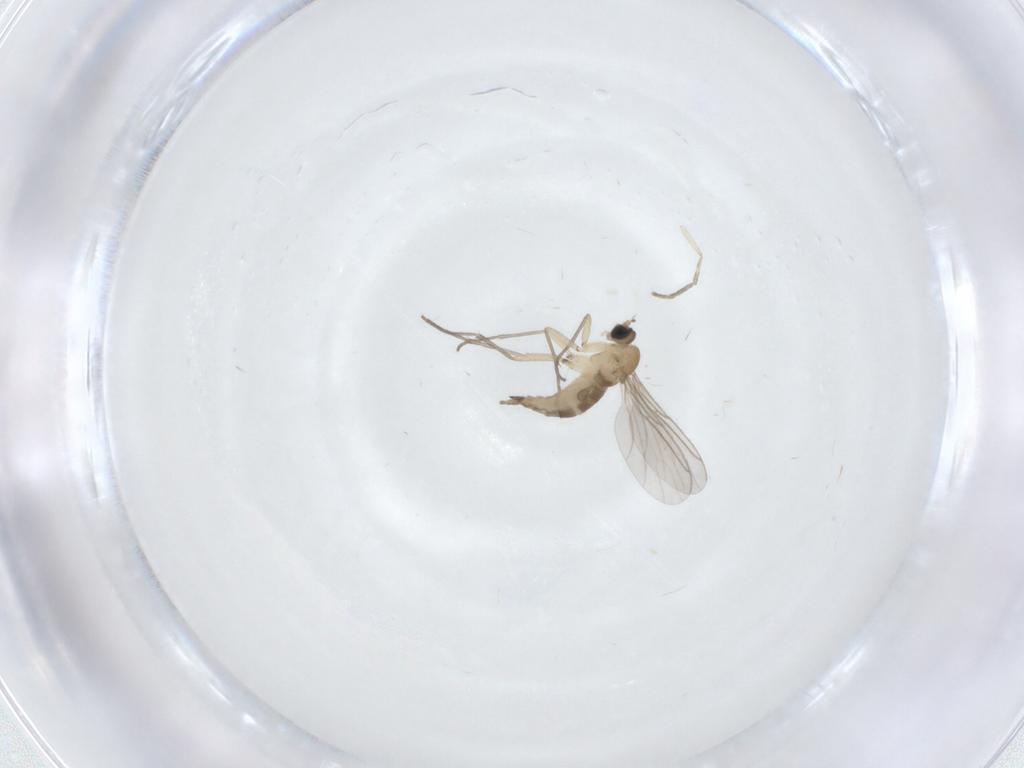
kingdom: Animalia
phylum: Arthropoda
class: Insecta
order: Diptera
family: Sciaridae
